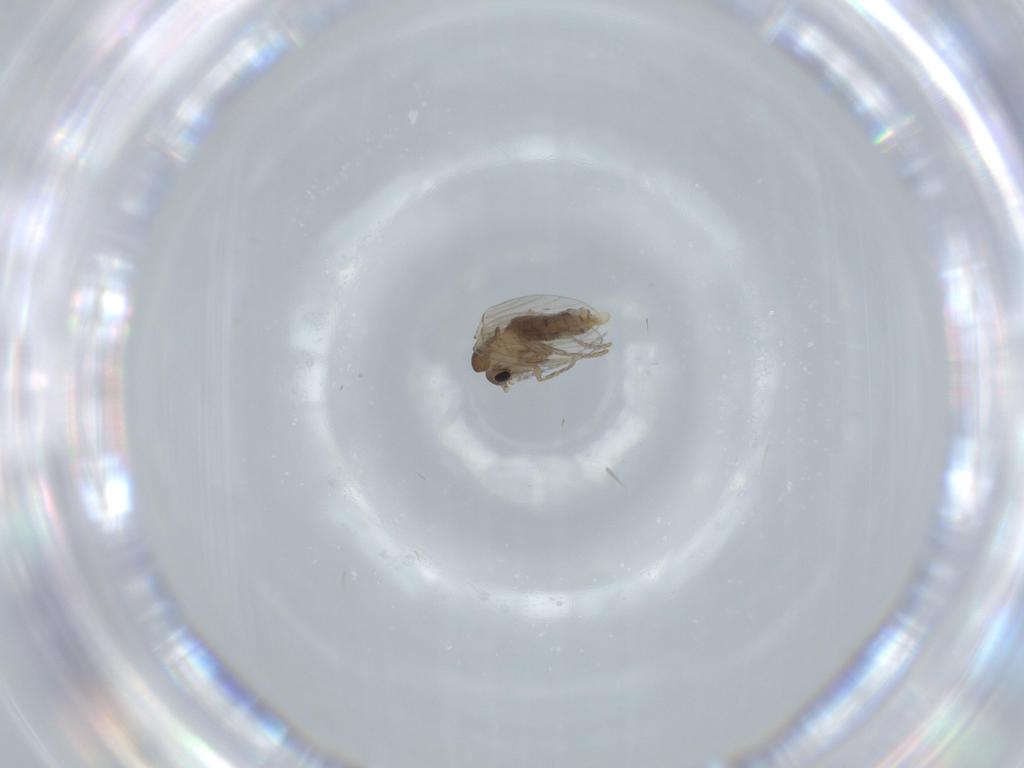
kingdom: Animalia
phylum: Arthropoda
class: Insecta
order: Diptera
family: Psychodidae
